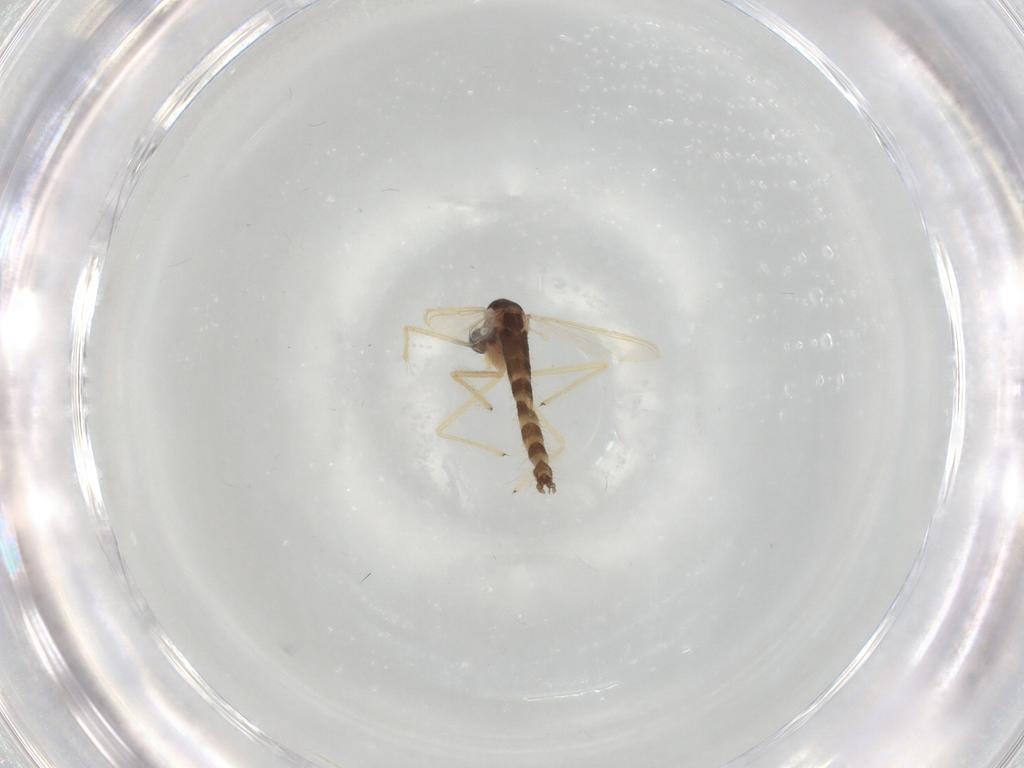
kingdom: Animalia
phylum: Arthropoda
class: Insecta
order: Diptera
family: Chironomidae
